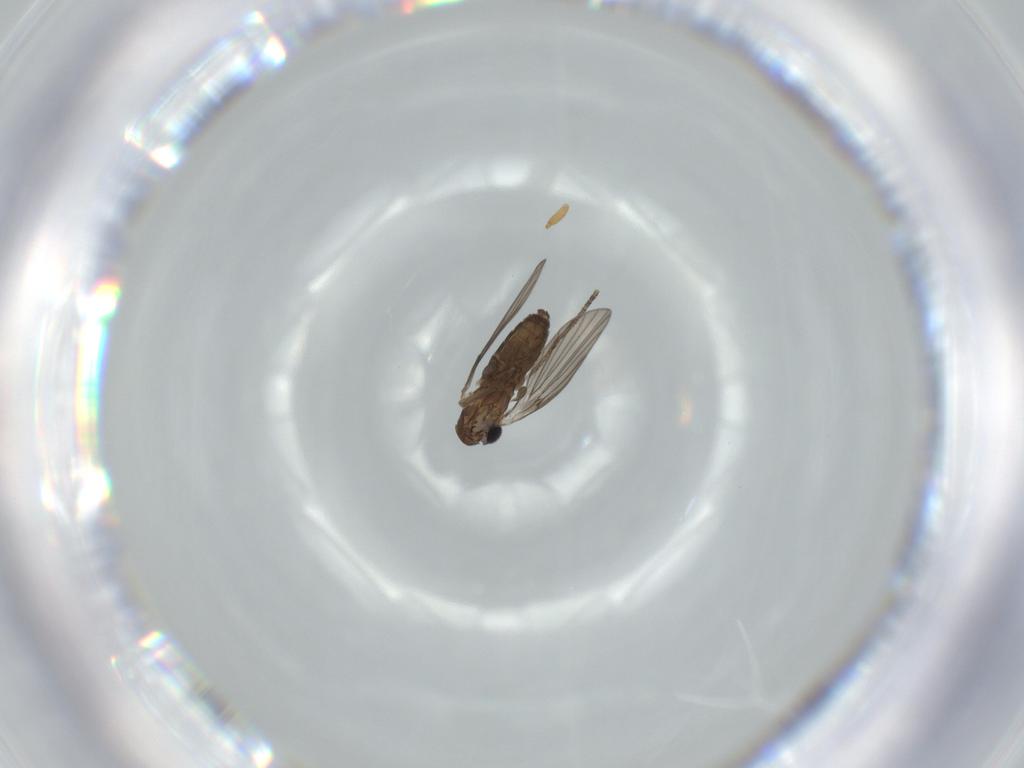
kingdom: Animalia
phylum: Arthropoda
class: Insecta
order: Diptera
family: Psychodidae
